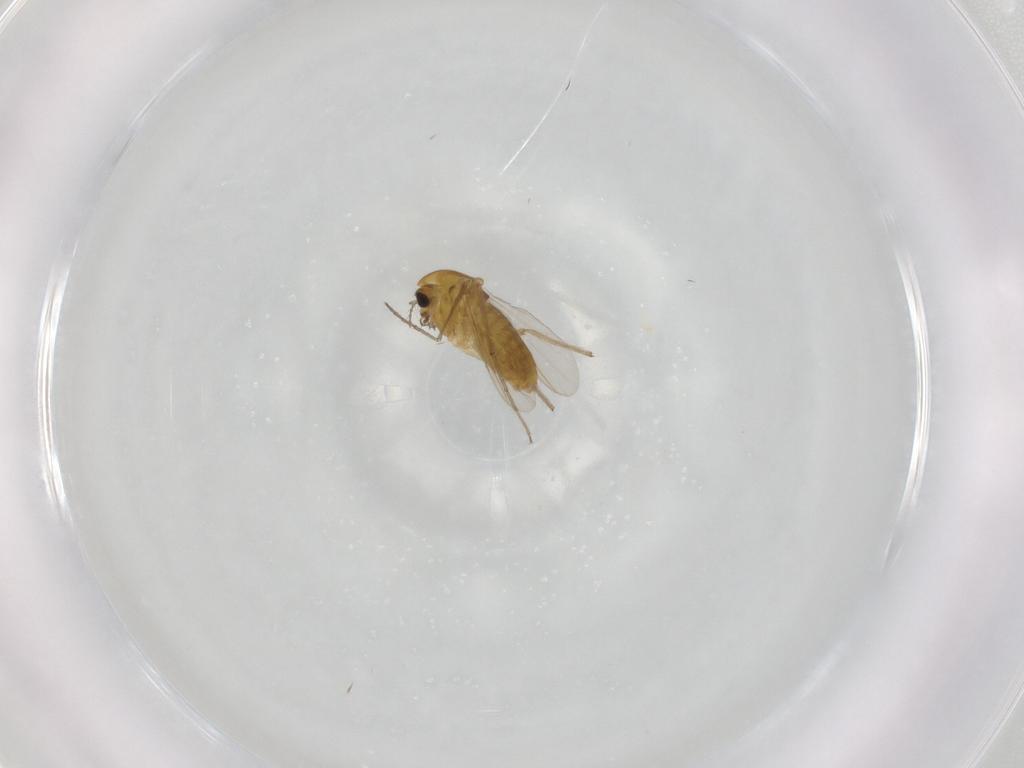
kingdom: Animalia
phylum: Arthropoda
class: Insecta
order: Diptera
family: Chironomidae
